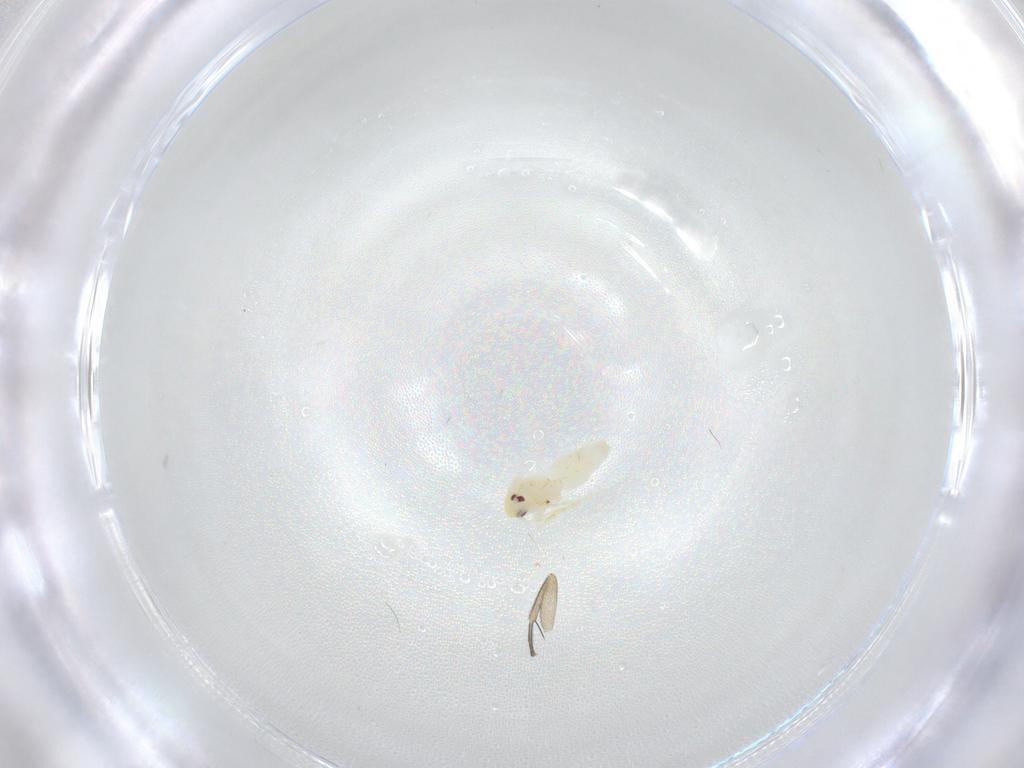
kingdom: Animalia
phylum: Arthropoda
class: Insecta
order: Hemiptera
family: Aleyrodidae
